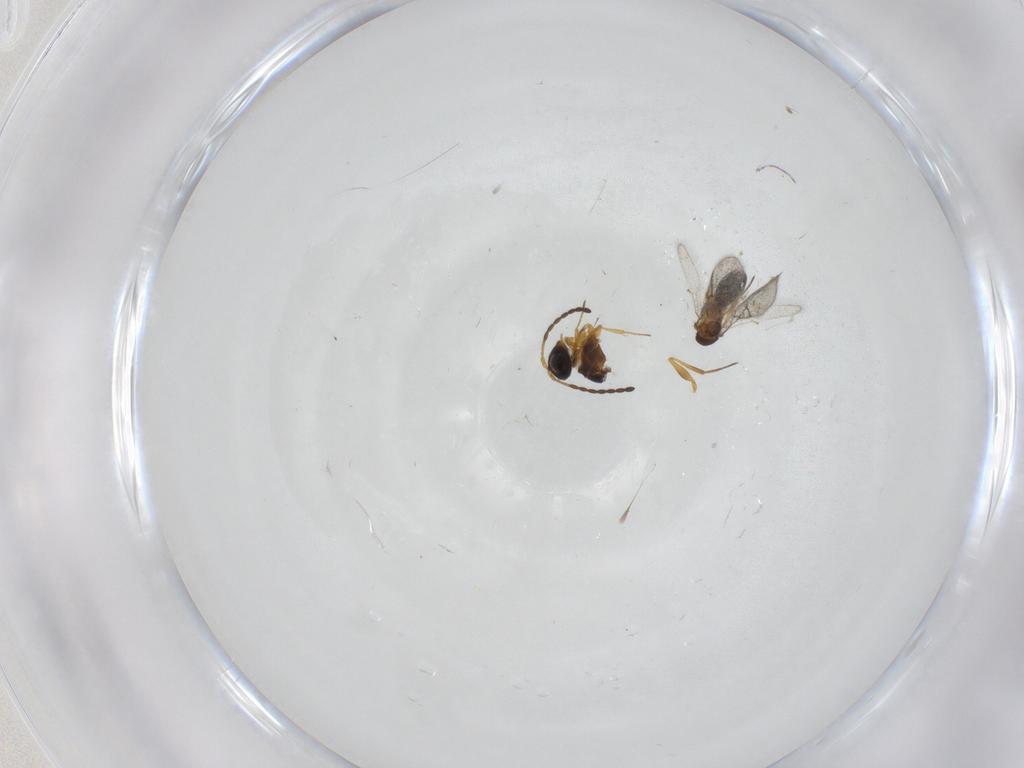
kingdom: Animalia
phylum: Arthropoda
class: Insecta
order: Hymenoptera
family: Figitidae
